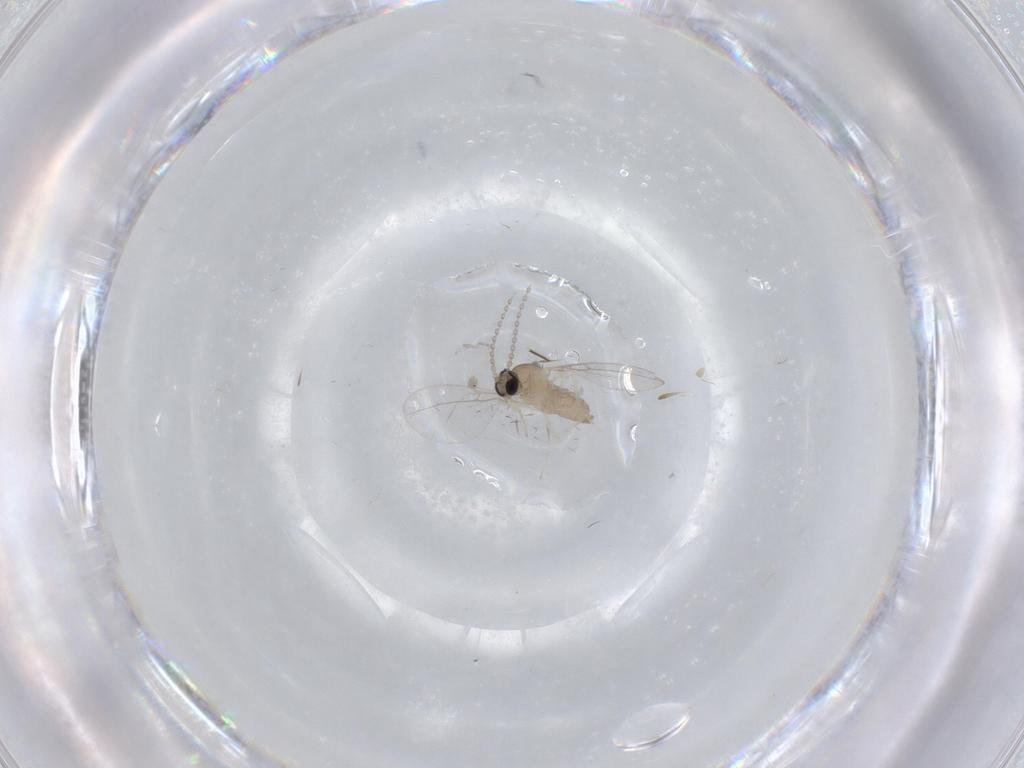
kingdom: Animalia
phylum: Arthropoda
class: Insecta
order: Diptera
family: Cecidomyiidae
